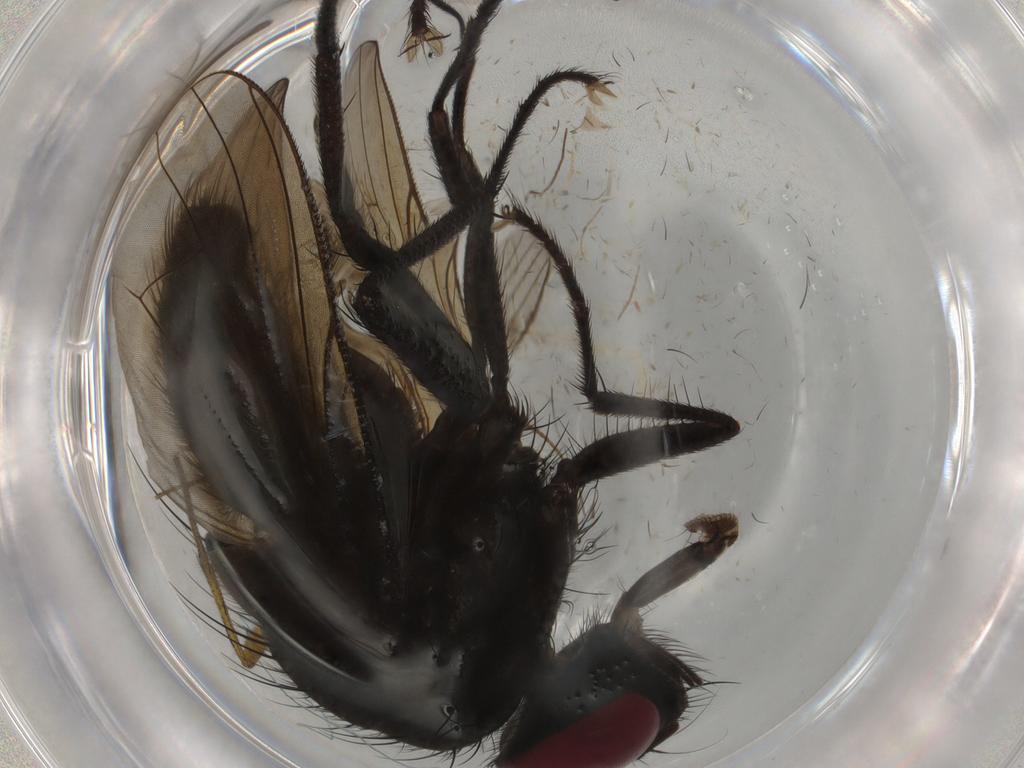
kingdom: Animalia
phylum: Arthropoda
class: Insecta
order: Diptera
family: Muscidae
